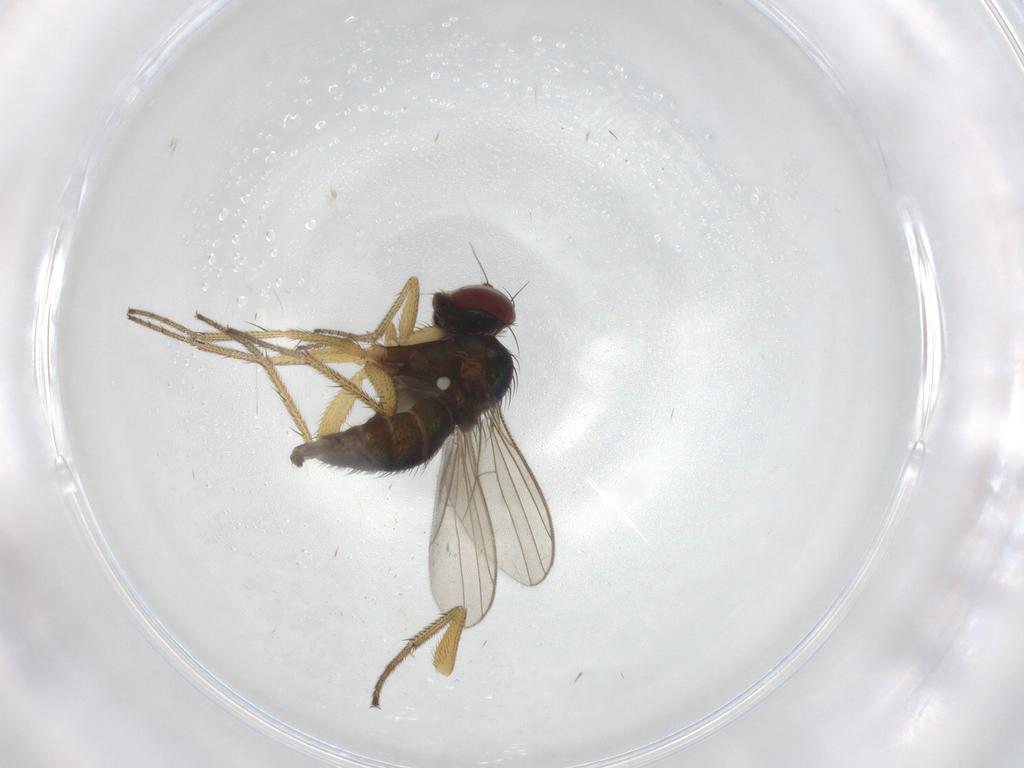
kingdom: Animalia
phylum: Arthropoda
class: Insecta
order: Diptera
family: Dolichopodidae
